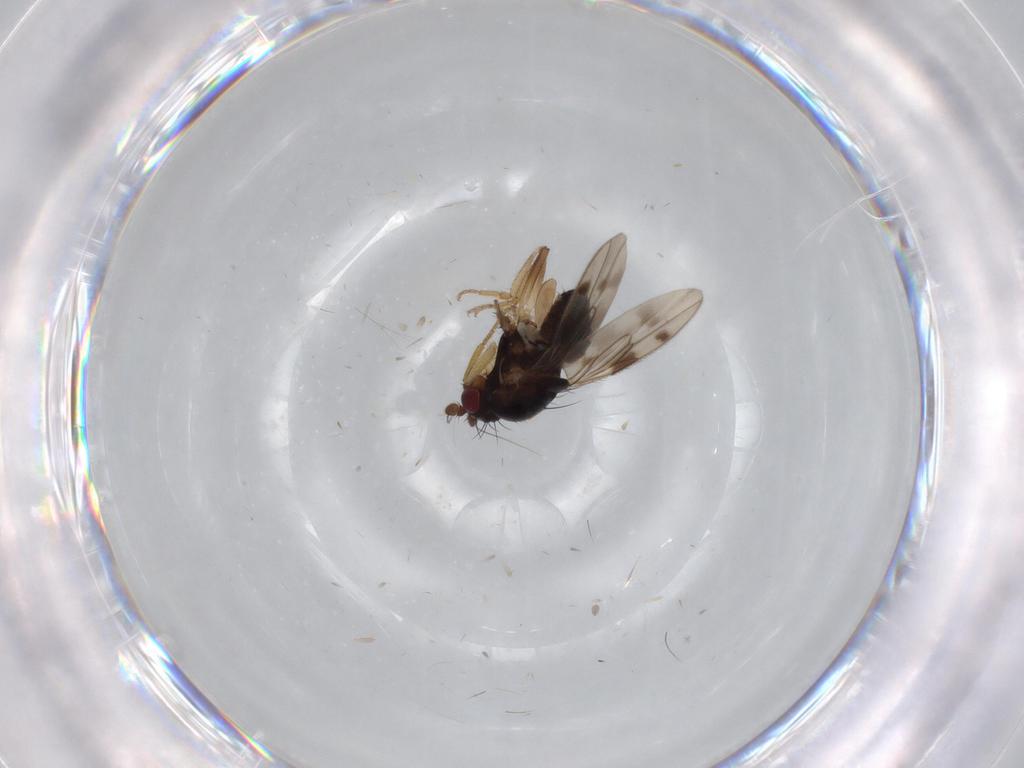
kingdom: Animalia
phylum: Arthropoda
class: Insecta
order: Diptera
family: Sphaeroceridae
